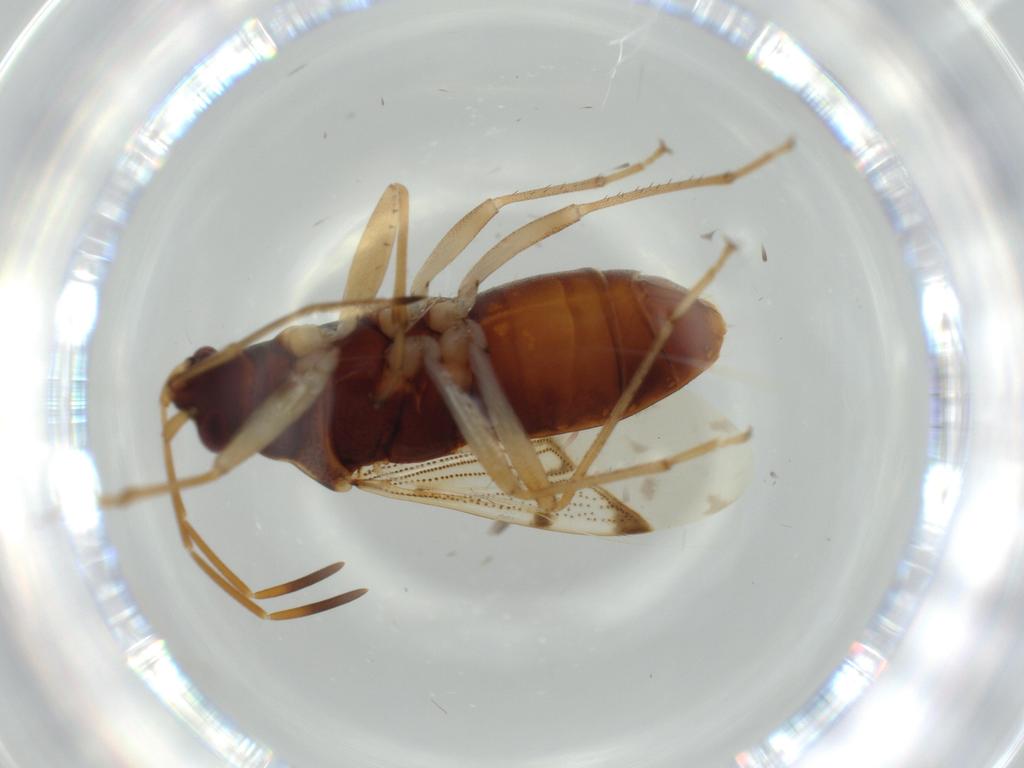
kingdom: Animalia
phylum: Arthropoda
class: Insecta
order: Hemiptera
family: Rhyparochromidae
